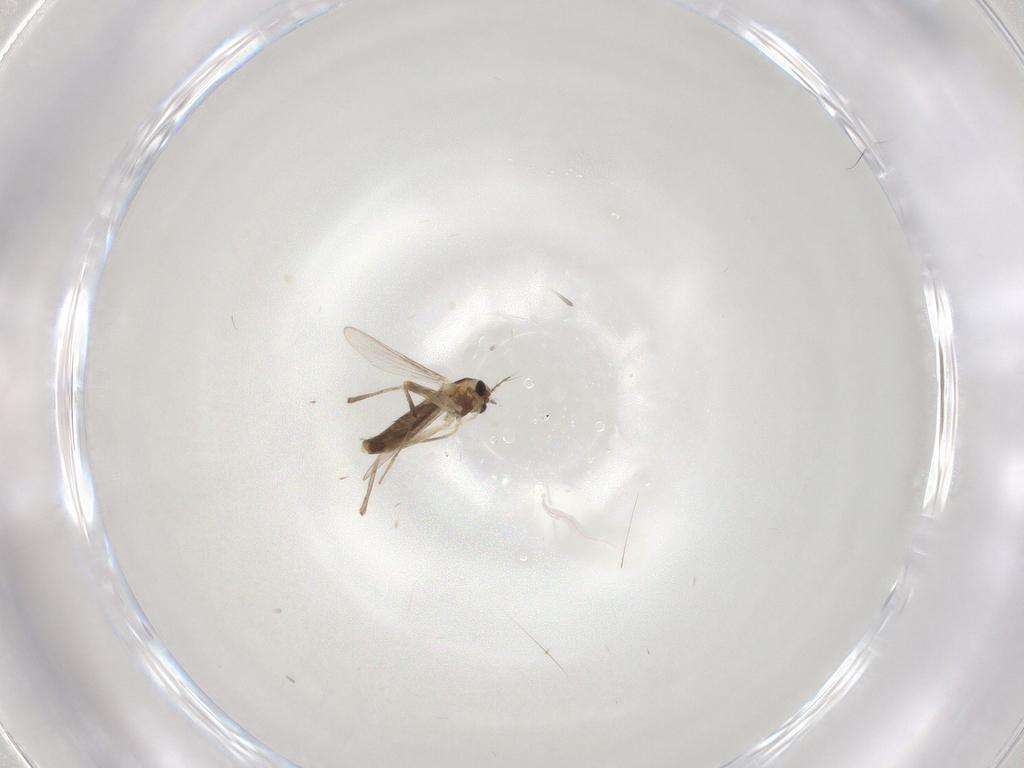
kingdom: Animalia
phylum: Arthropoda
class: Insecta
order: Diptera
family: Chironomidae
